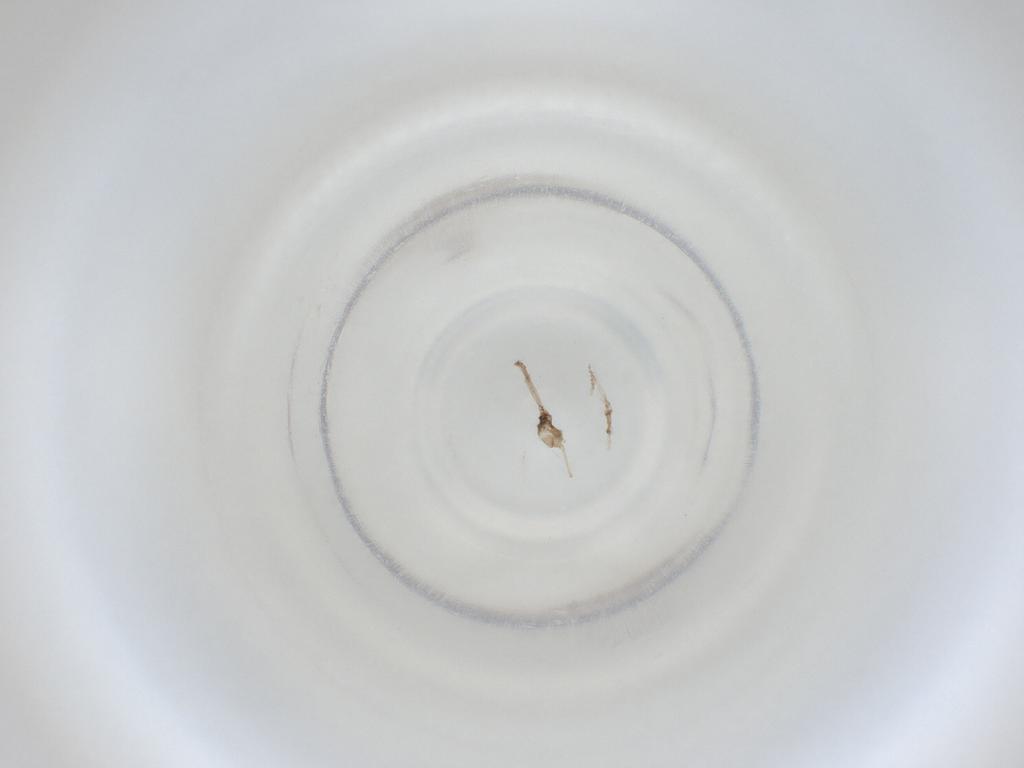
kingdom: Animalia
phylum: Arthropoda
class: Insecta
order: Diptera
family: Cecidomyiidae
